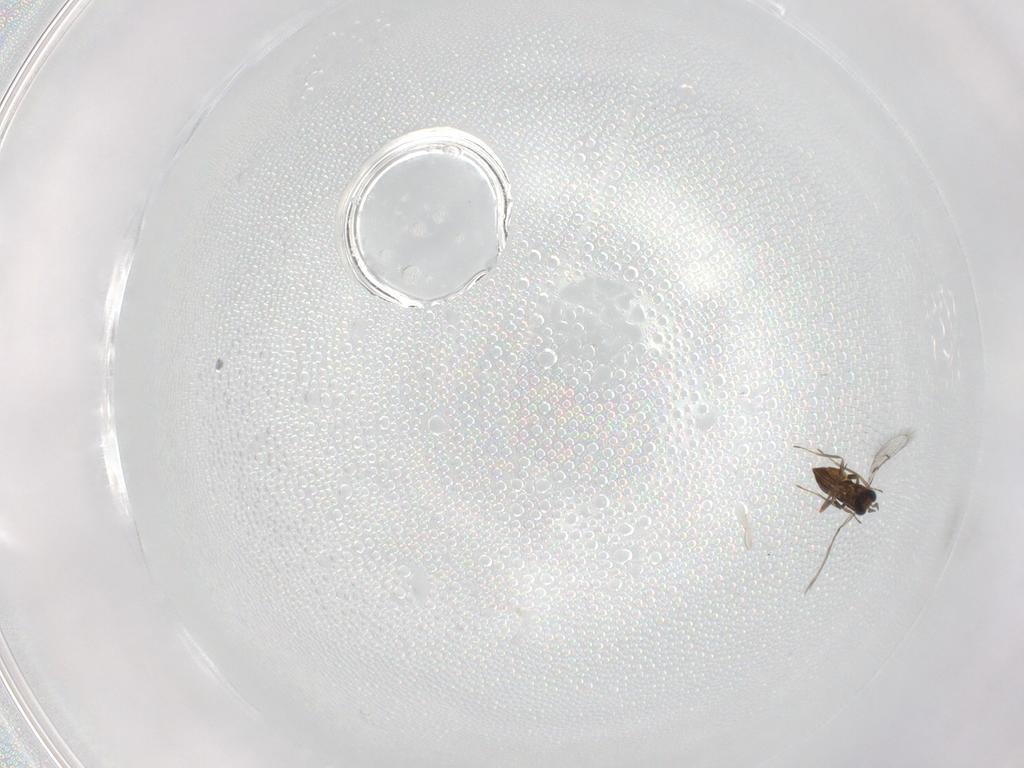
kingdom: Animalia
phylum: Arthropoda
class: Insecta
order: Hymenoptera
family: Trichogrammatidae
